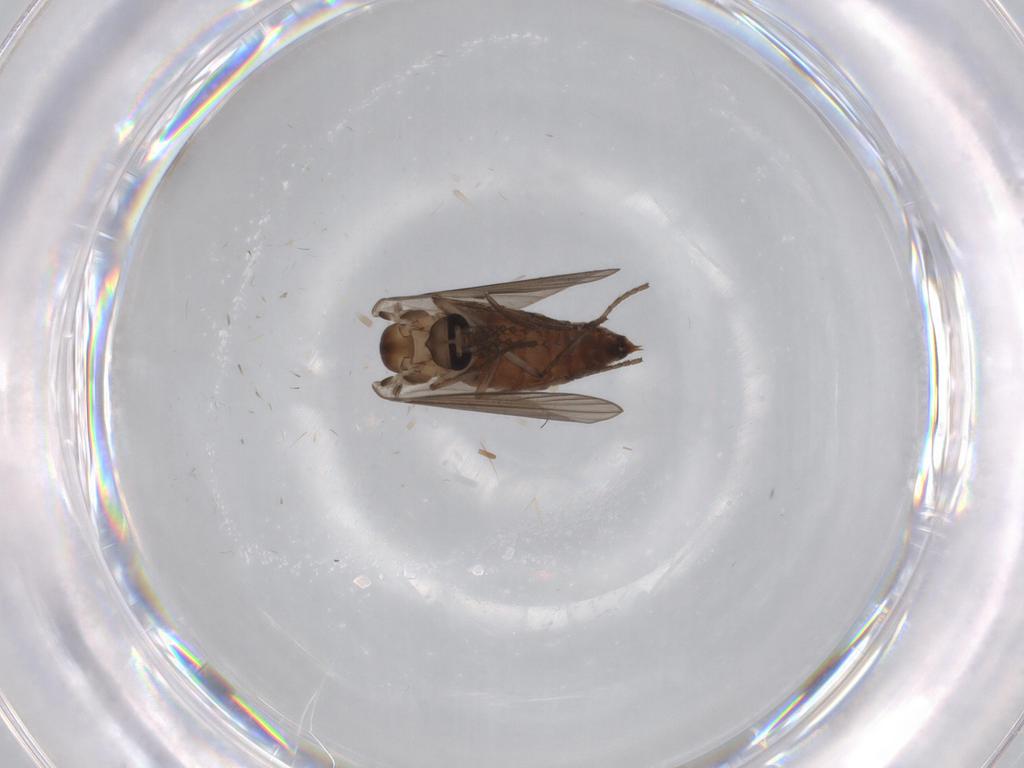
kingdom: Animalia
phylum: Arthropoda
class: Insecta
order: Diptera
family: Psychodidae
